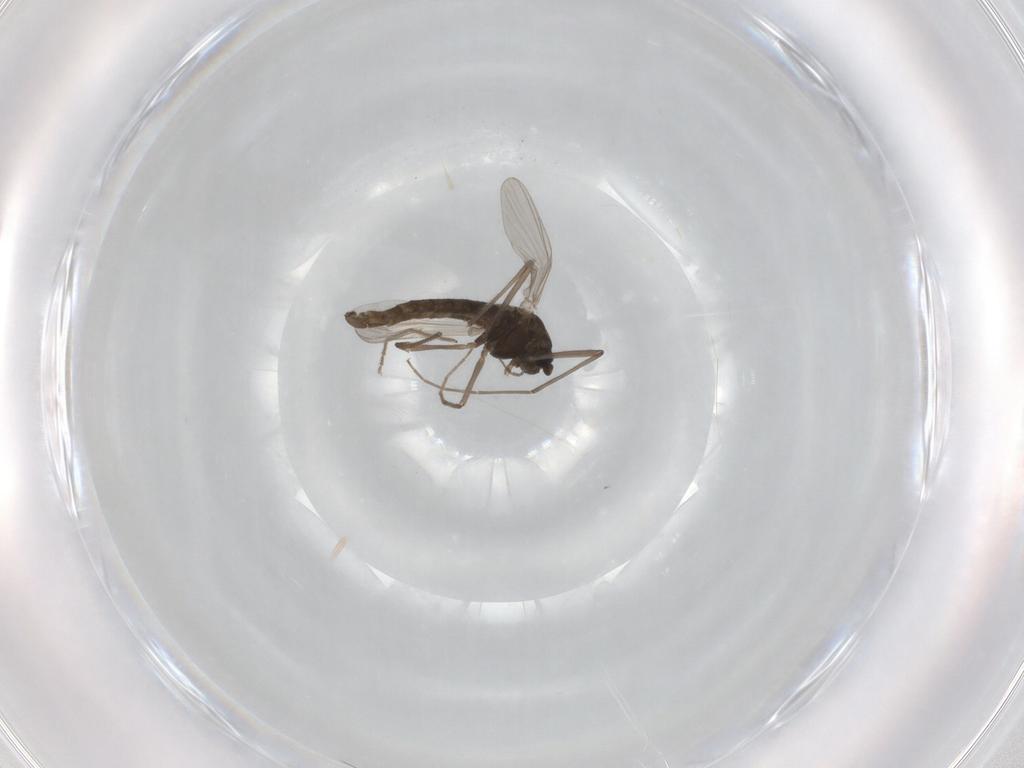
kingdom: Animalia
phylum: Arthropoda
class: Insecta
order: Diptera
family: Chironomidae
